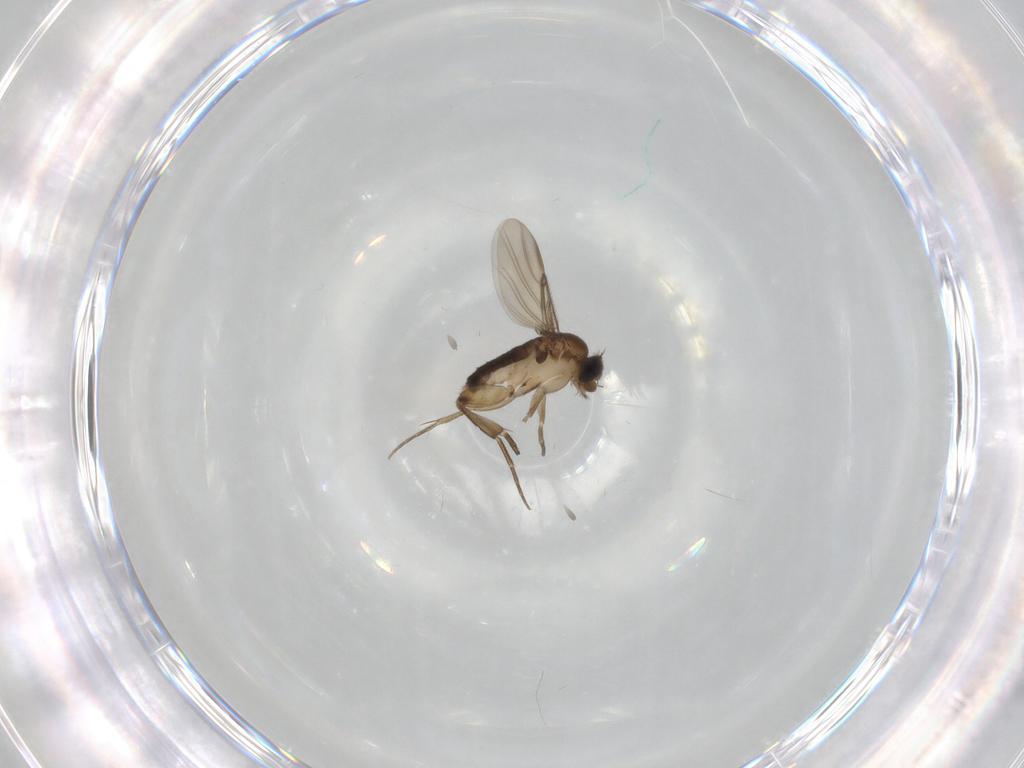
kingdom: Animalia
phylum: Arthropoda
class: Insecta
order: Diptera
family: Phoridae
